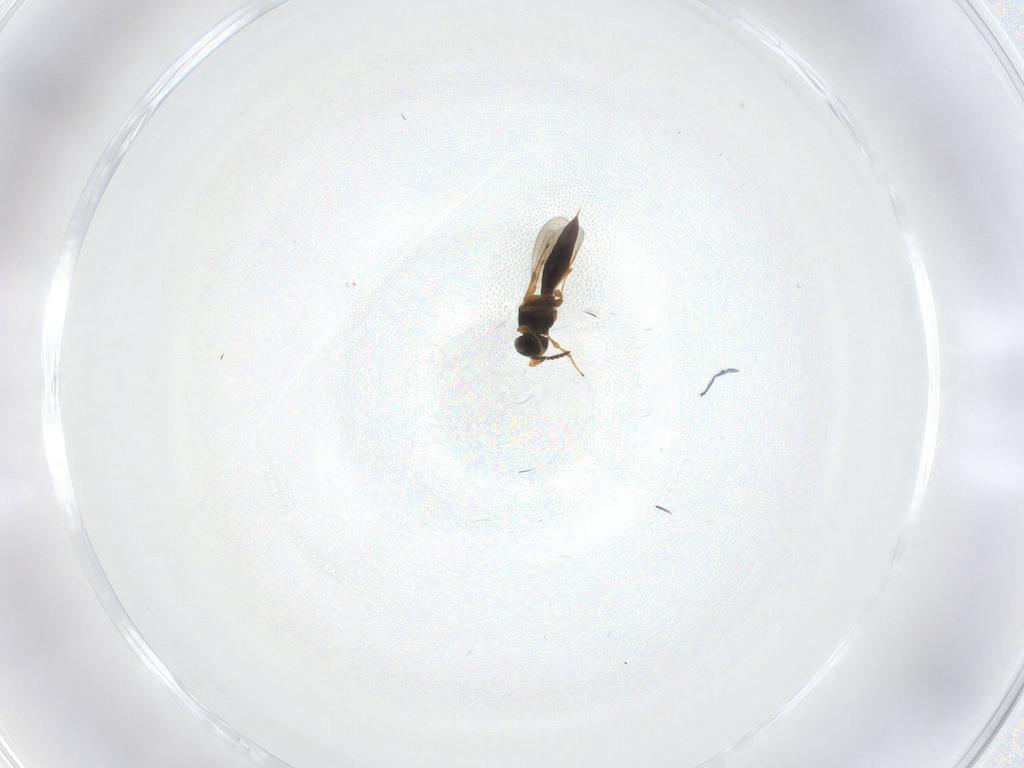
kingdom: Animalia
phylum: Arthropoda
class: Insecta
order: Hymenoptera
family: Platygastridae
